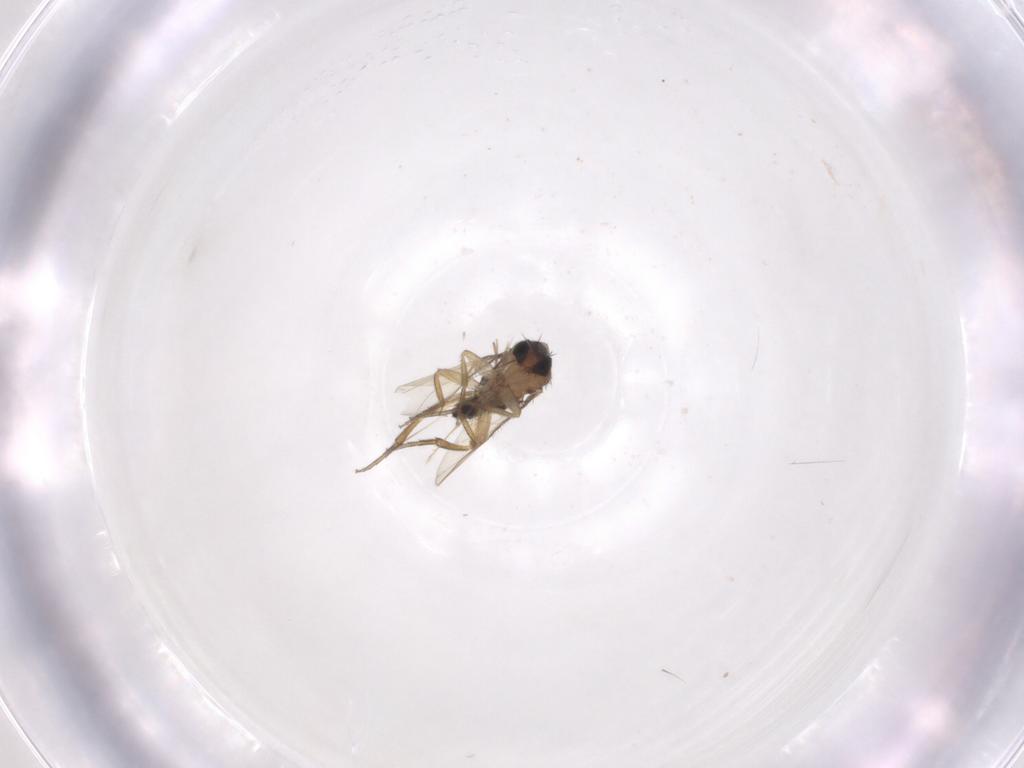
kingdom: Animalia
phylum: Arthropoda
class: Insecta
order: Diptera
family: Phoridae
